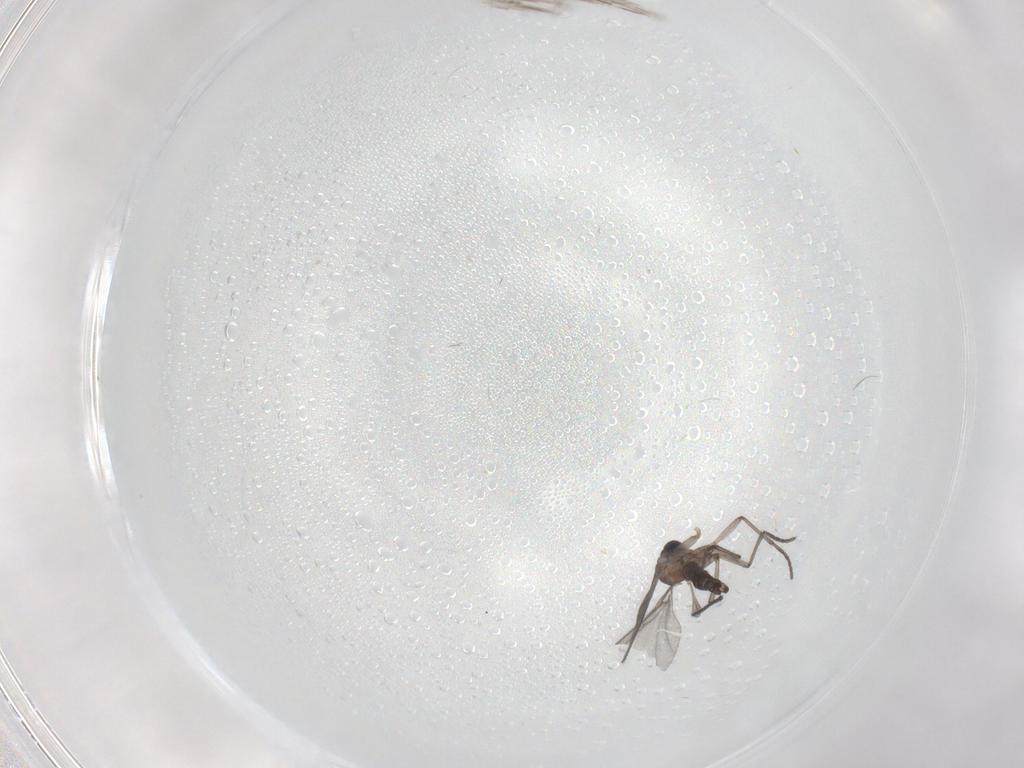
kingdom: Animalia
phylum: Arthropoda
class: Insecta
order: Diptera
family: Sciaridae
